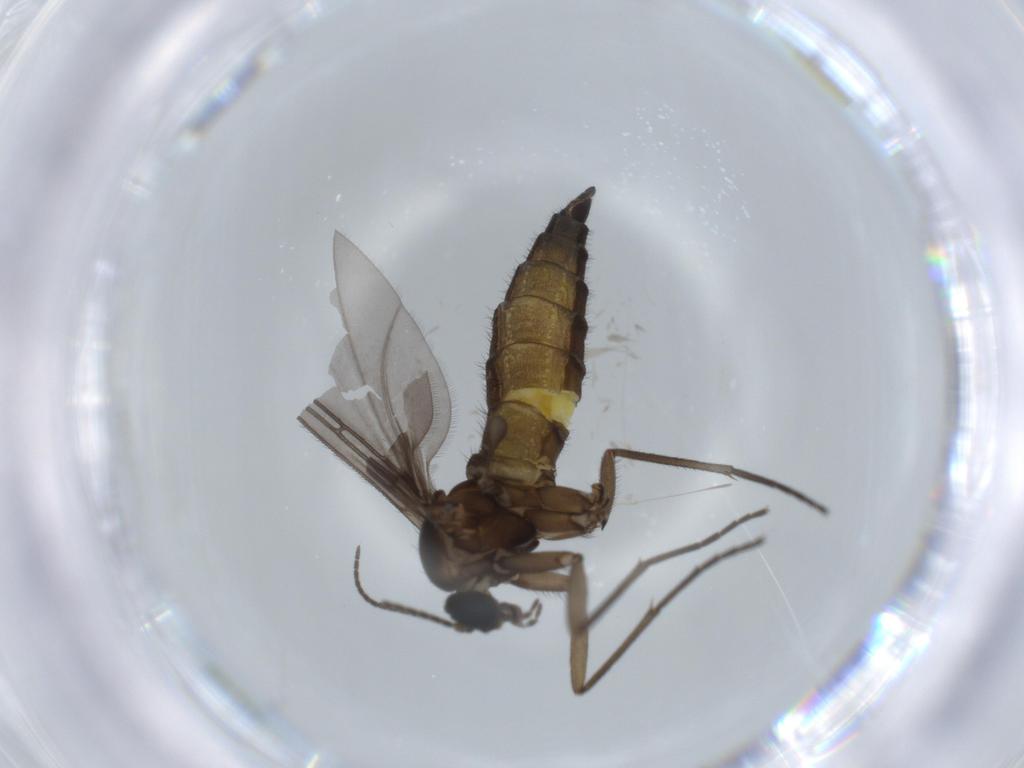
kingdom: Animalia
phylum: Arthropoda
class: Insecta
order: Diptera
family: Sciaridae
